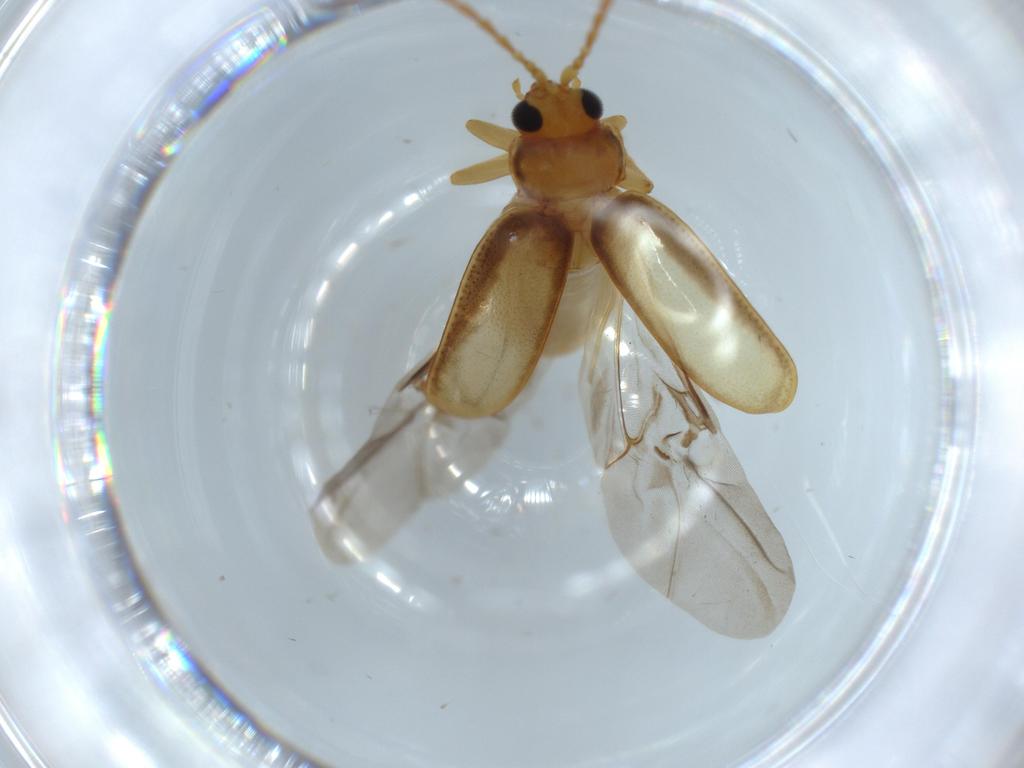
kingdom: Animalia
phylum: Arthropoda
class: Insecta
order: Coleoptera
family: Chrysomelidae
